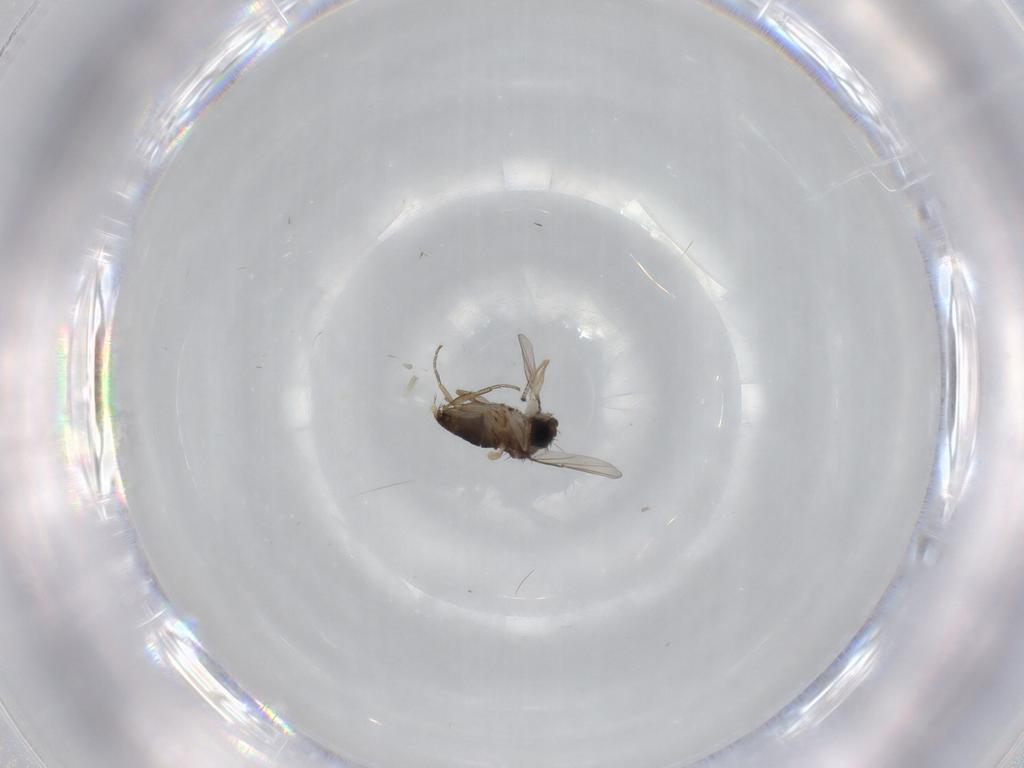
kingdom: Animalia
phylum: Arthropoda
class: Insecta
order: Diptera
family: Phoridae
